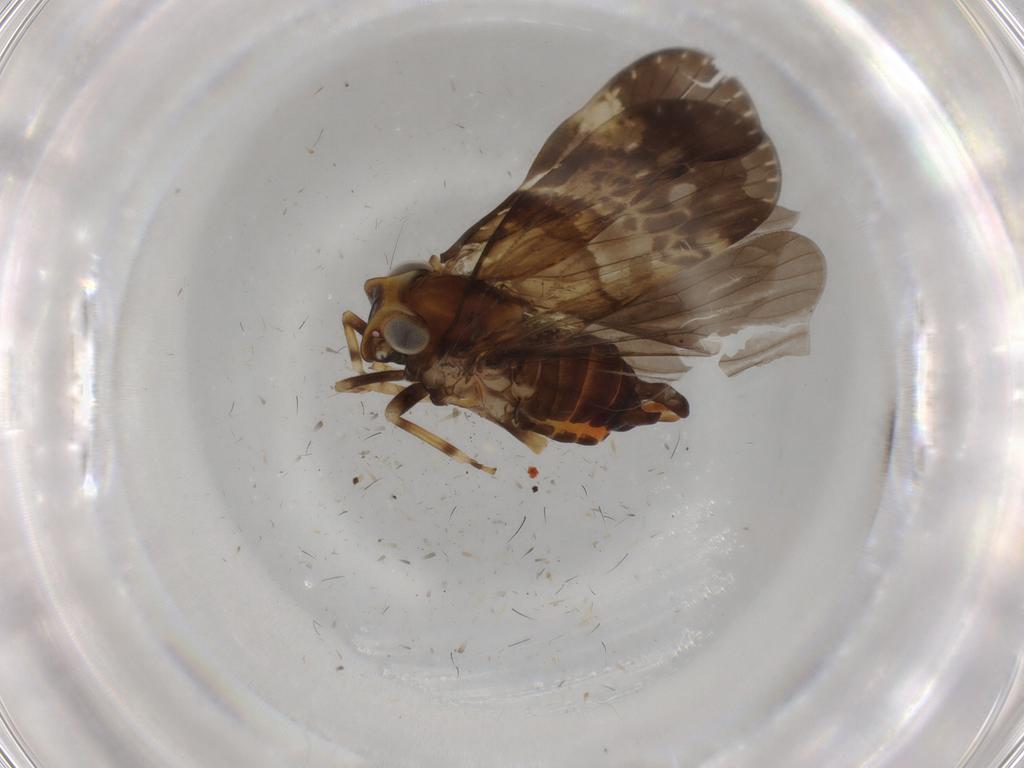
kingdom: Animalia
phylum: Arthropoda
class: Insecta
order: Hemiptera
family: Cixiidae
